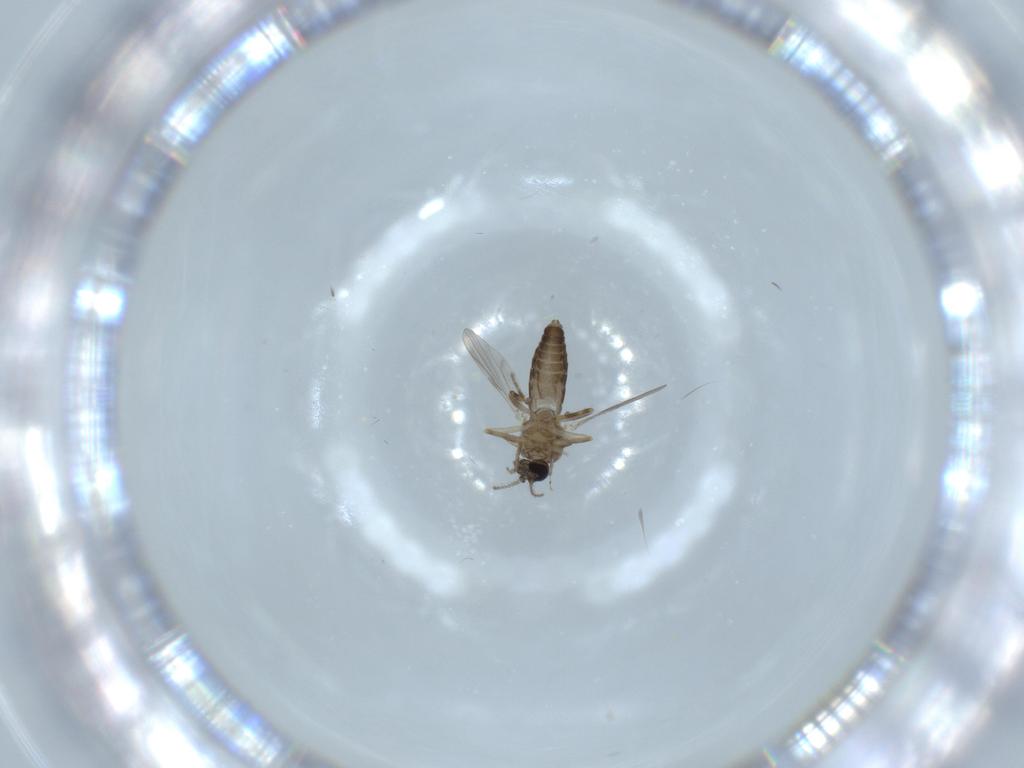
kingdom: Animalia
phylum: Arthropoda
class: Insecta
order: Diptera
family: Ceratopogonidae
